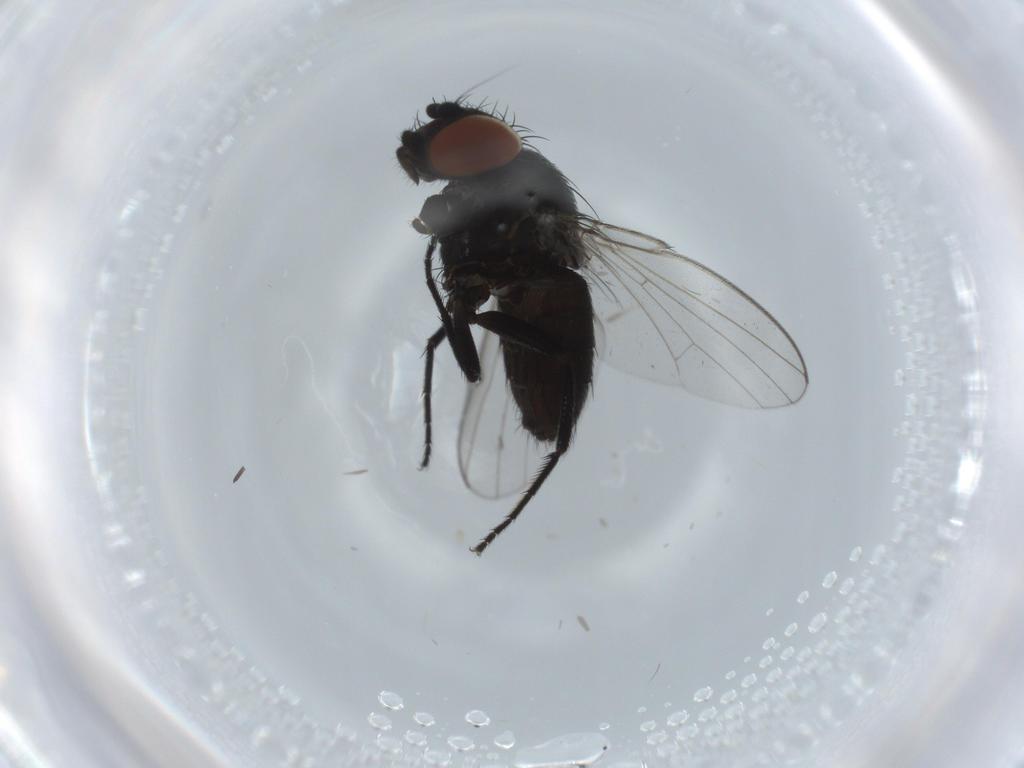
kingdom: Animalia
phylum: Arthropoda
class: Insecta
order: Diptera
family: Milichiidae
